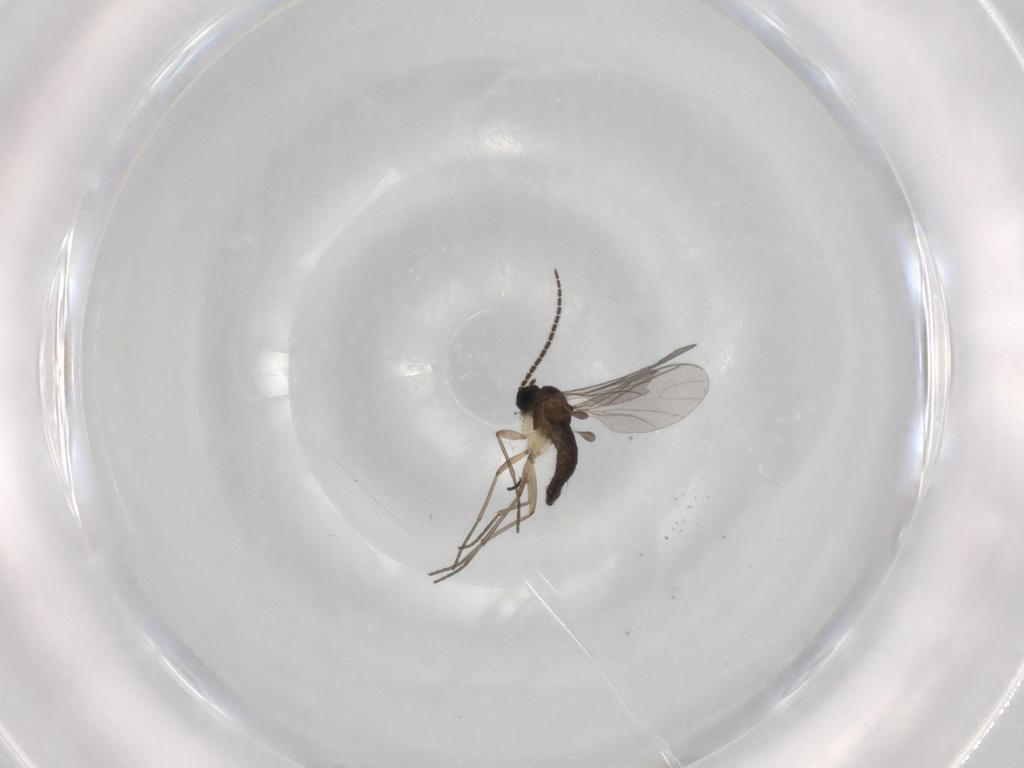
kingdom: Animalia
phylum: Arthropoda
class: Insecta
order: Diptera
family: Sciaridae
